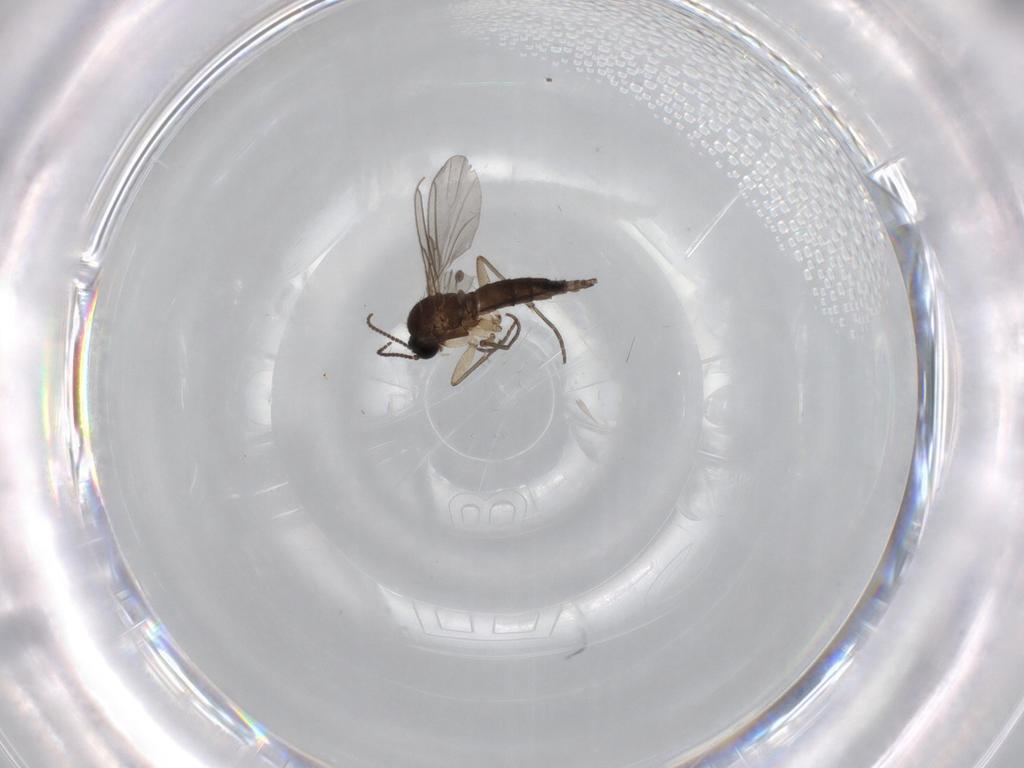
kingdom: Animalia
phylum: Arthropoda
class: Insecta
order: Diptera
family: Sciaridae
